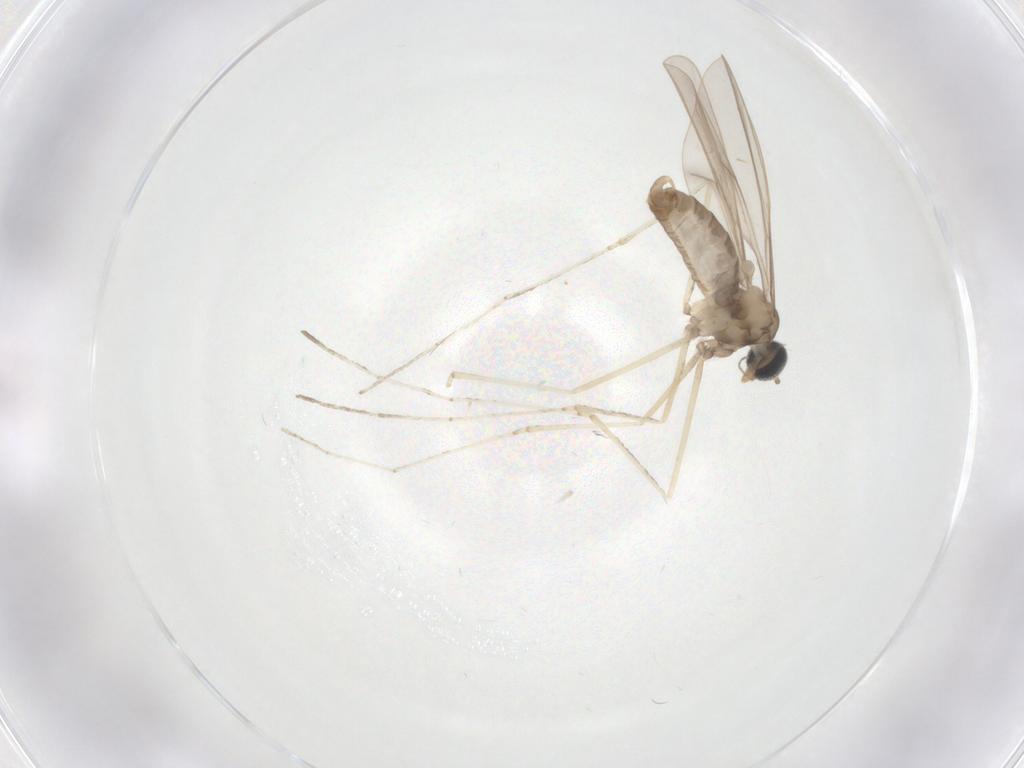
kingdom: Animalia
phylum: Arthropoda
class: Insecta
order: Diptera
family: Cecidomyiidae
